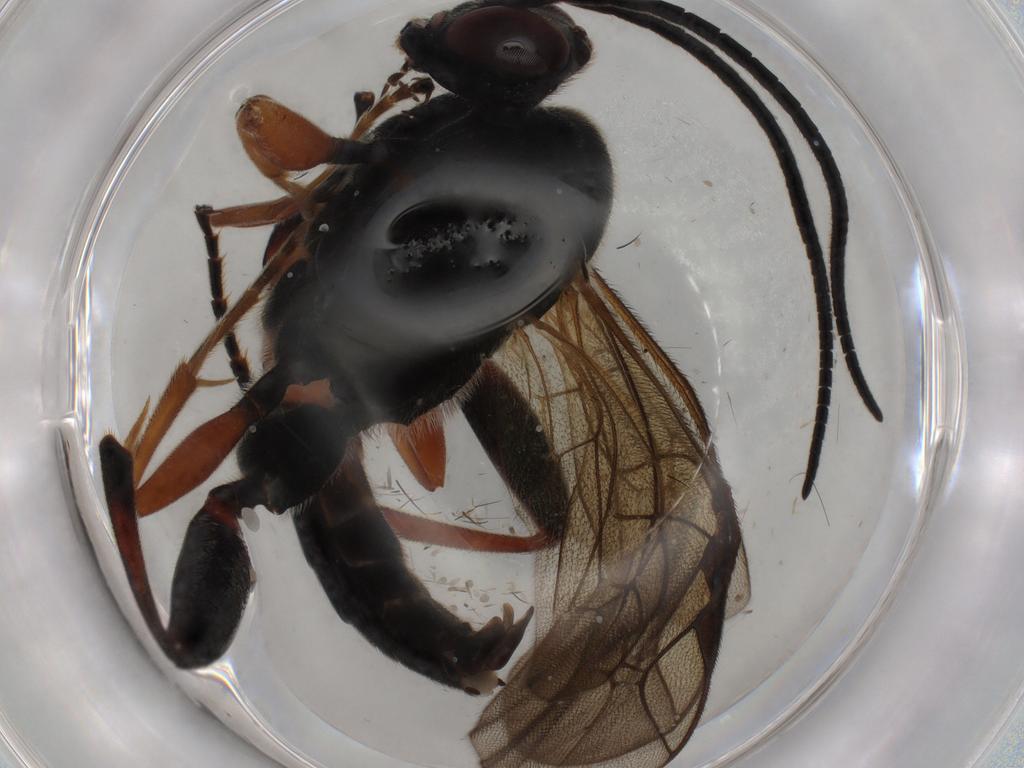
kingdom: Animalia
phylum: Arthropoda
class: Insecta
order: Hymenoptera
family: Ichneumonidae
